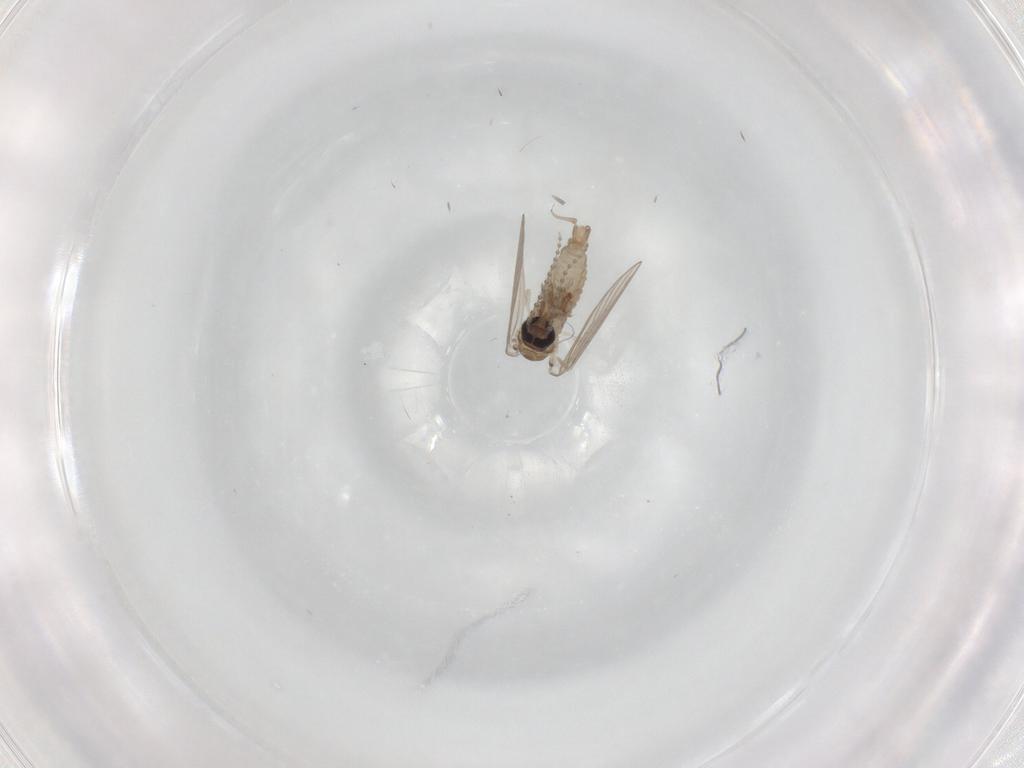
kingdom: Animalia
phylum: Arthropoda
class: Insecta
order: Diptera
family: Psychodidae
